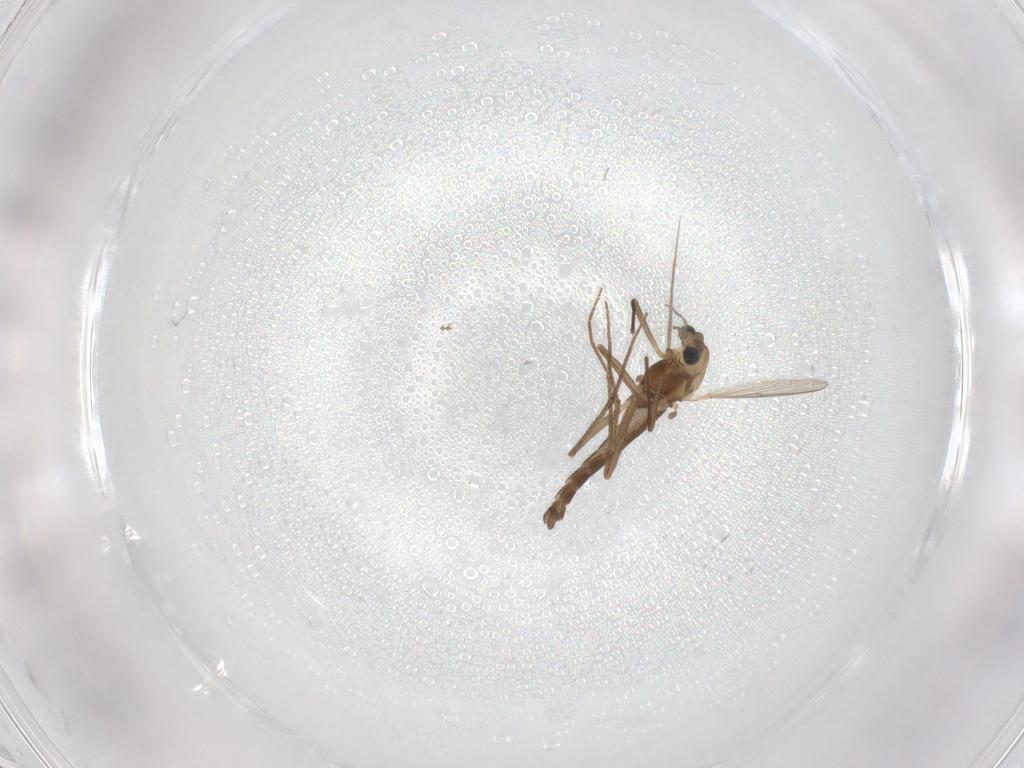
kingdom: Animalia
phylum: Arthropoda
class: Insecta
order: Diptera
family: Chironomidae
